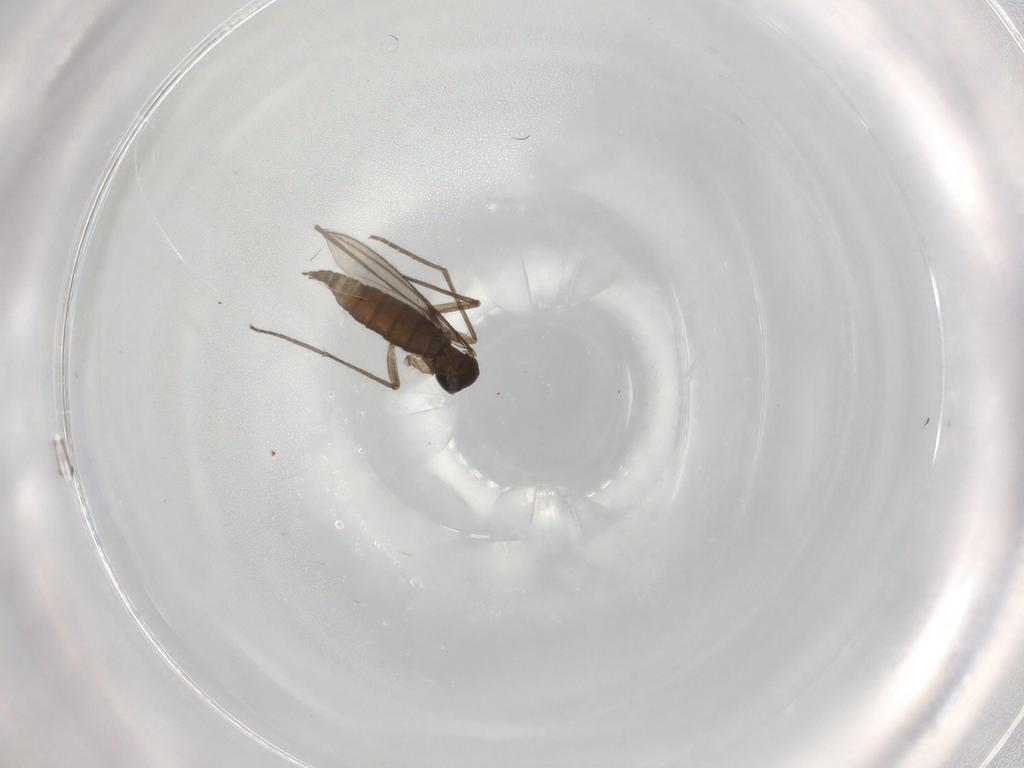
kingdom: Animalia
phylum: Arthropoda
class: Insecta
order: Diptera
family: Sciaridae
